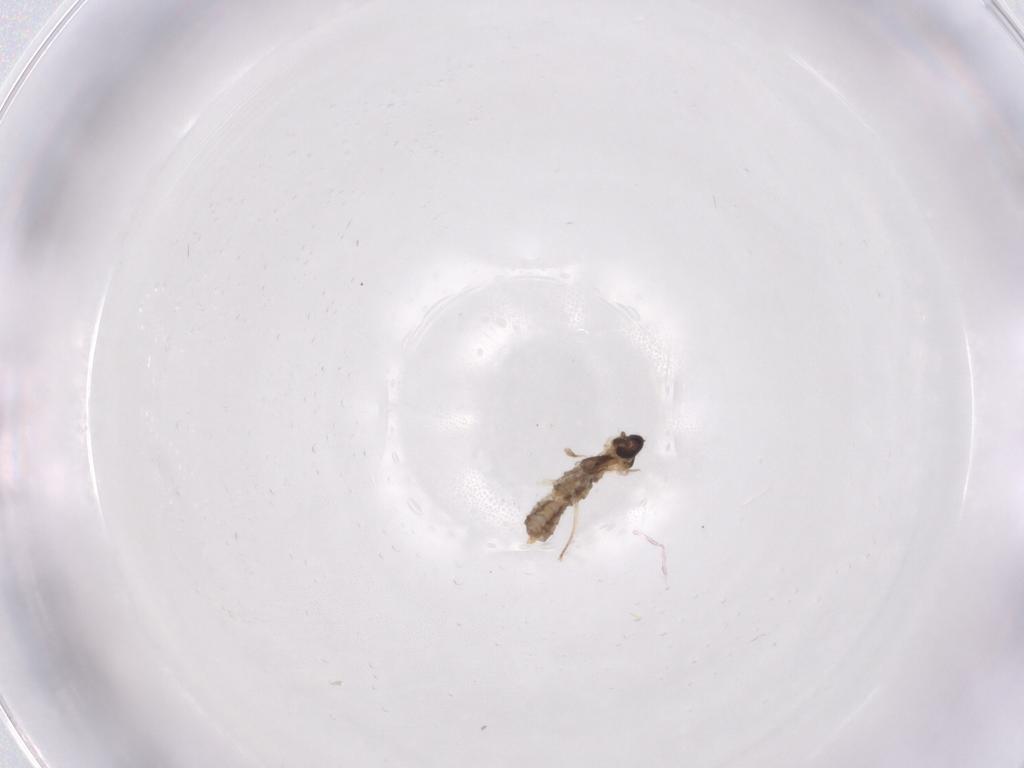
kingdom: Animalia
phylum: Arthropoda
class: Insecta
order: Diptera
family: Cecidomyiidae
